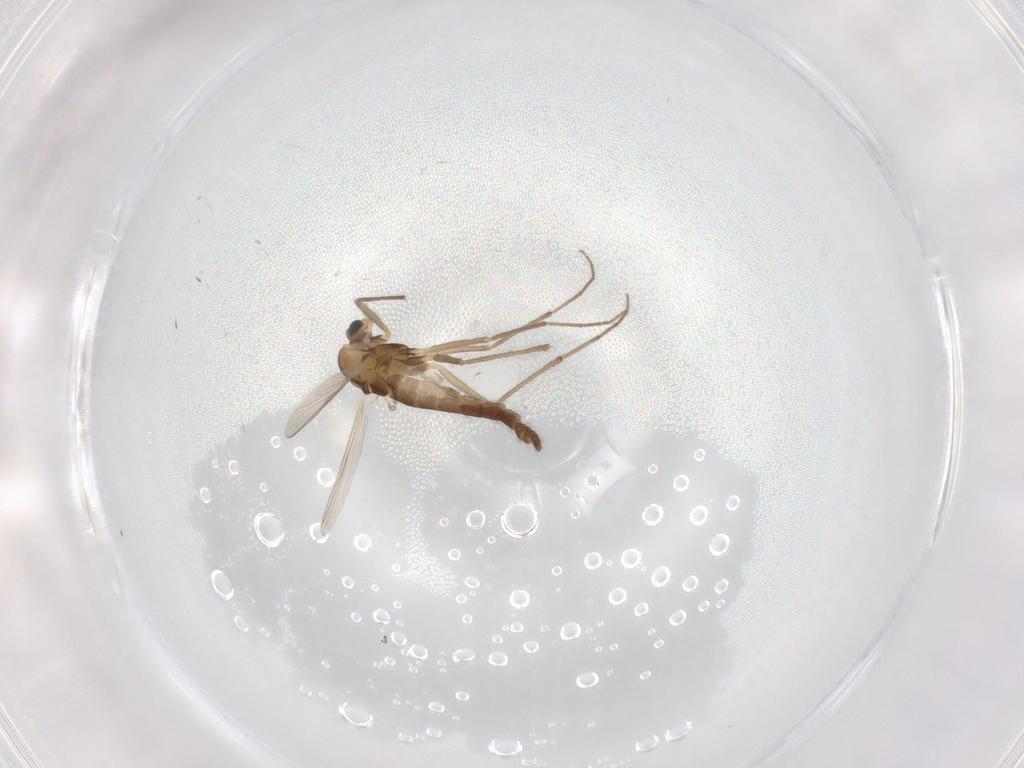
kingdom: Animalia
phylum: Arthropoda
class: Insecta
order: Diptera
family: Chironomidae
